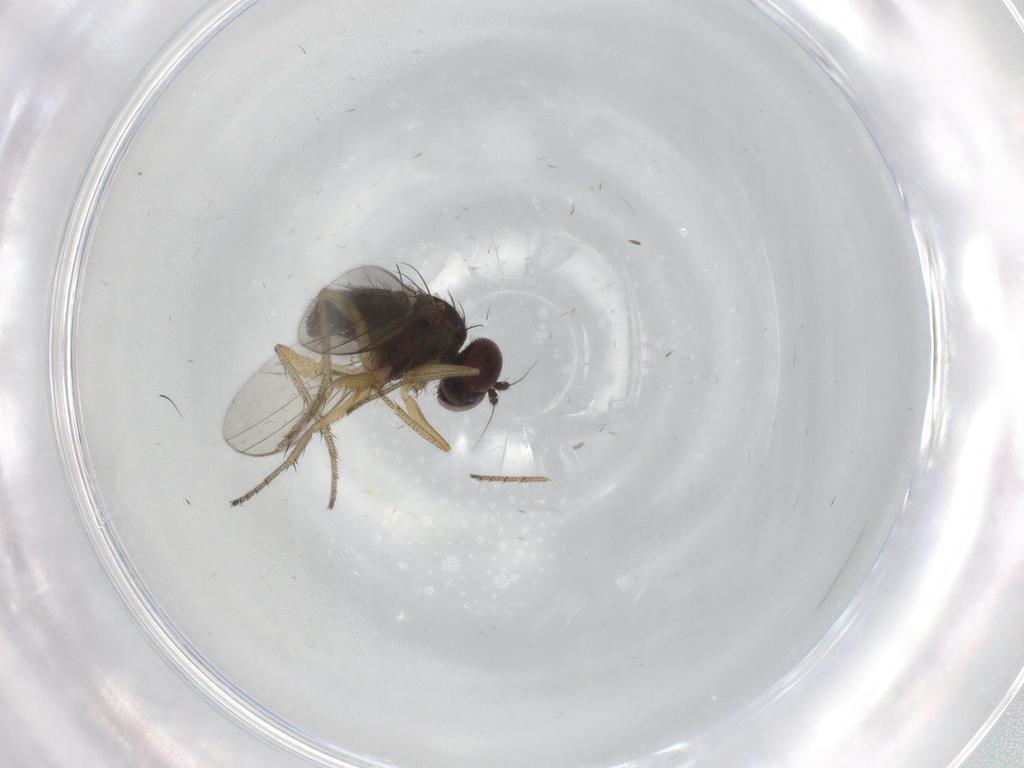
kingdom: Animalia
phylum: Arthropoda
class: Insecta
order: Diptera
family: Dolichopodidae
